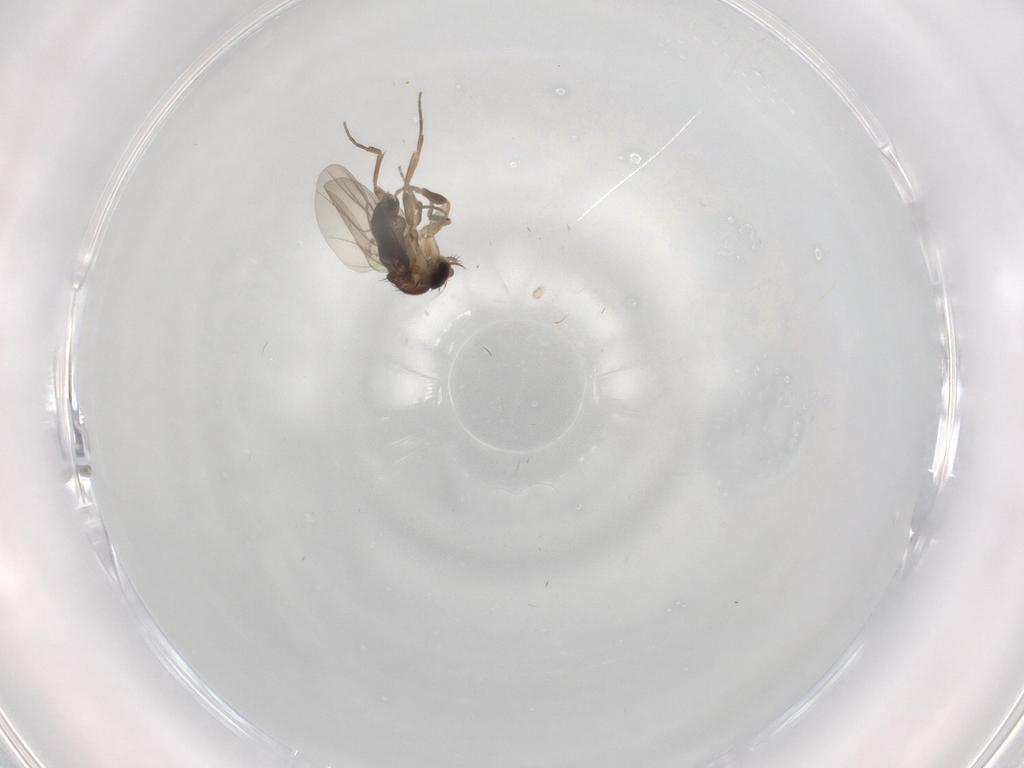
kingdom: Animalia
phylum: Arthropoda
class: Insecta
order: Diptera
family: Phoridae
